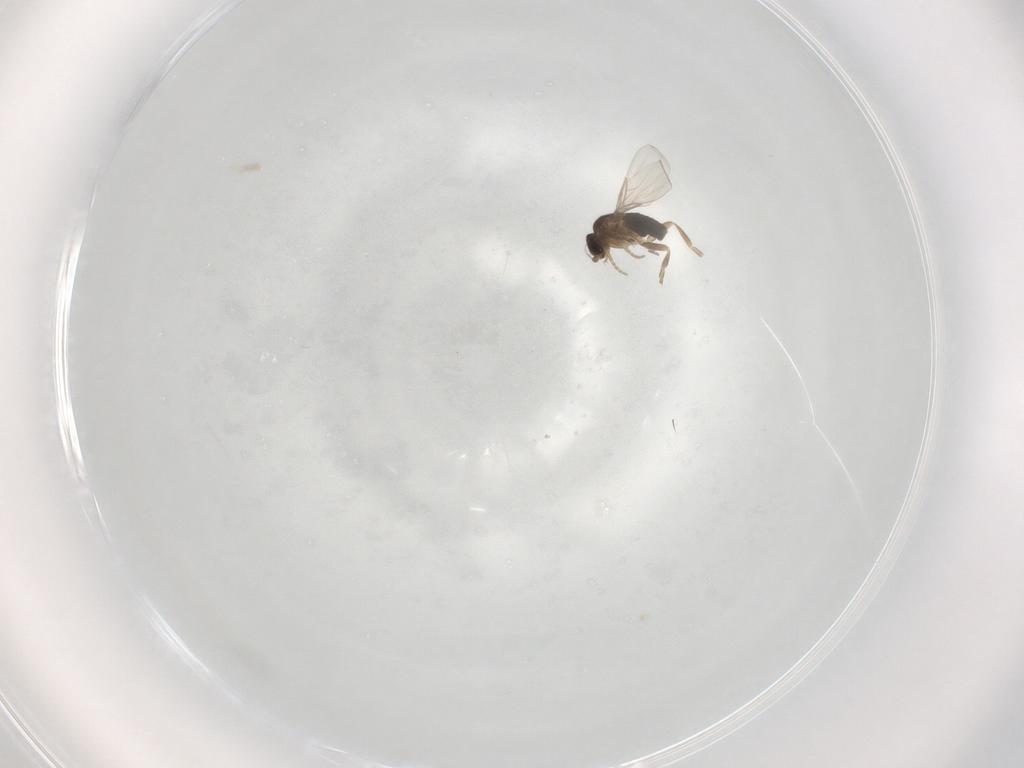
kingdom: Animalia
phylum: Arthropoda
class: Insecta
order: Diptera
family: Phoridae
